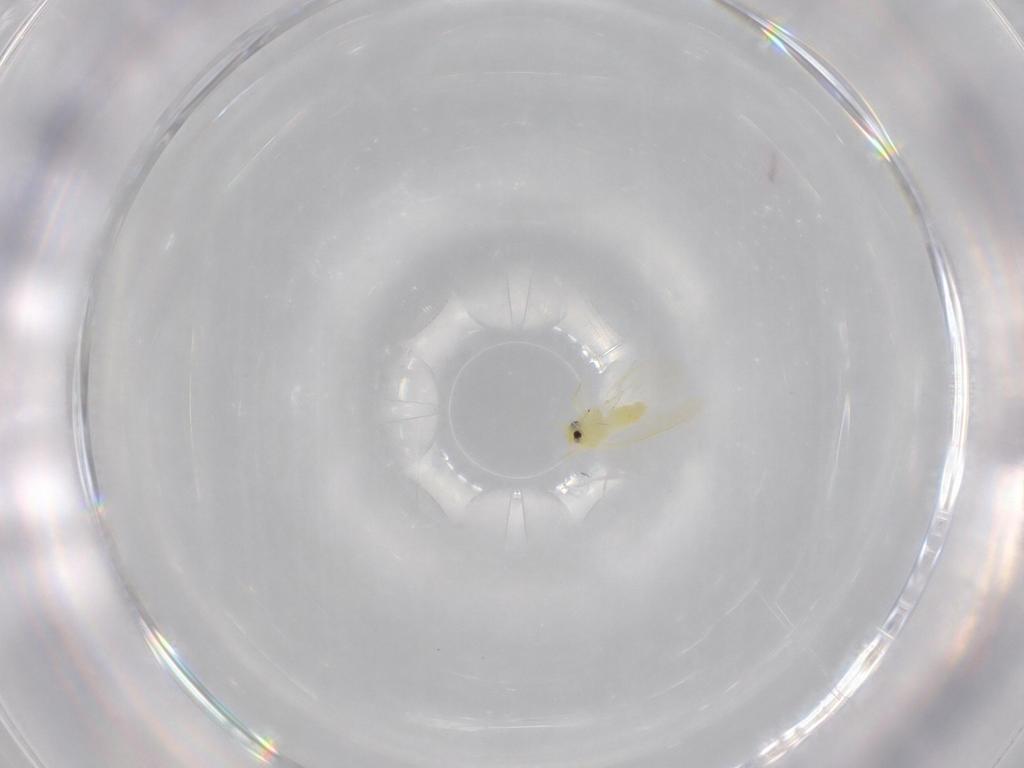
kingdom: Animalia
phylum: Arthropoda
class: Insecta
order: Hemiptera
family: Aleyrodidae
